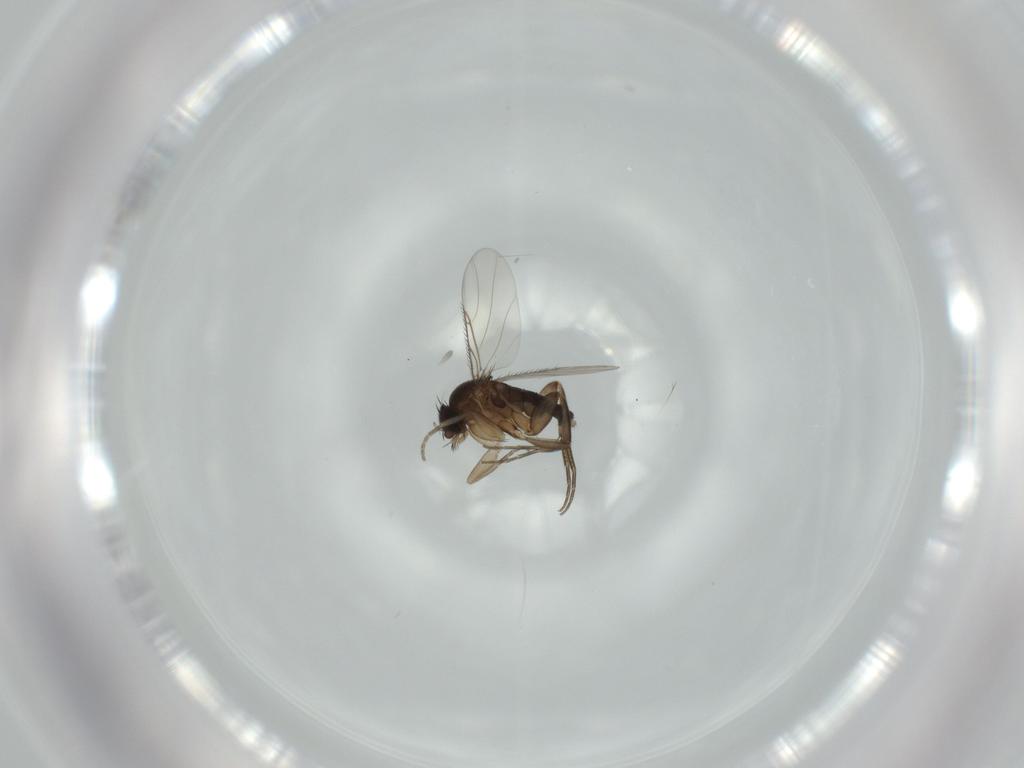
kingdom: Animalia
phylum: Arthropoda
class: Insecta
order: Diptera
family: Phoridae
